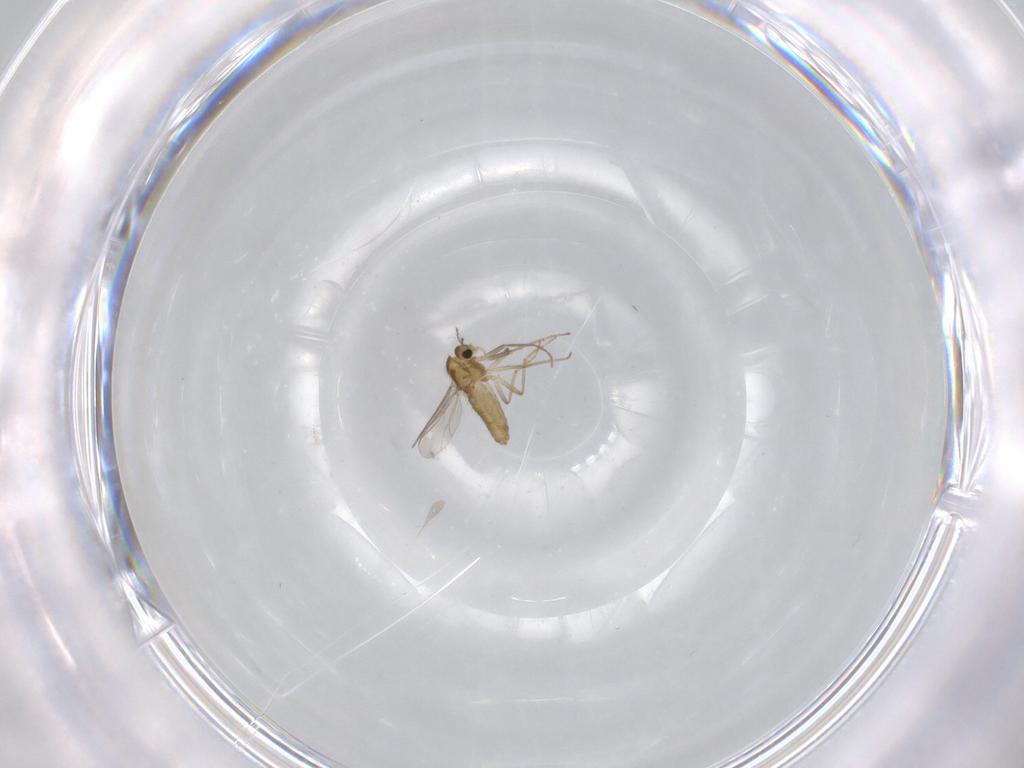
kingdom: Animalia
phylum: Arthropoda
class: Insecta
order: Diptera
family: Chironomidae
